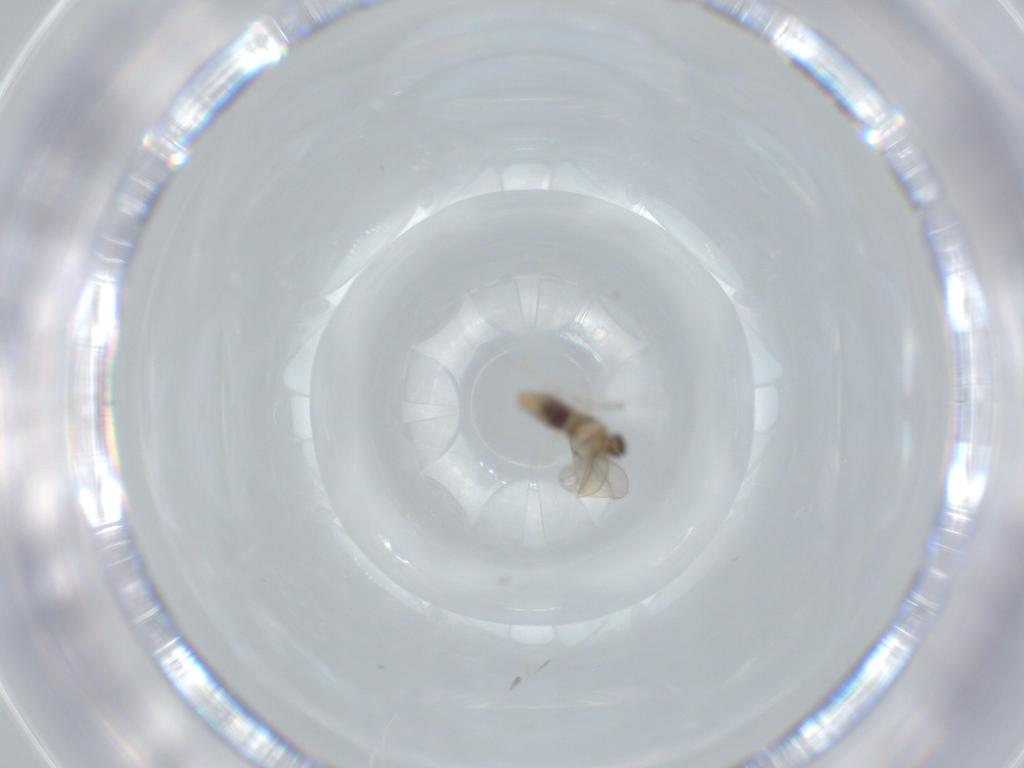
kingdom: Animalia
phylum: Arthropoda
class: Insecta
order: Diptera
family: Cecidomyiidae
